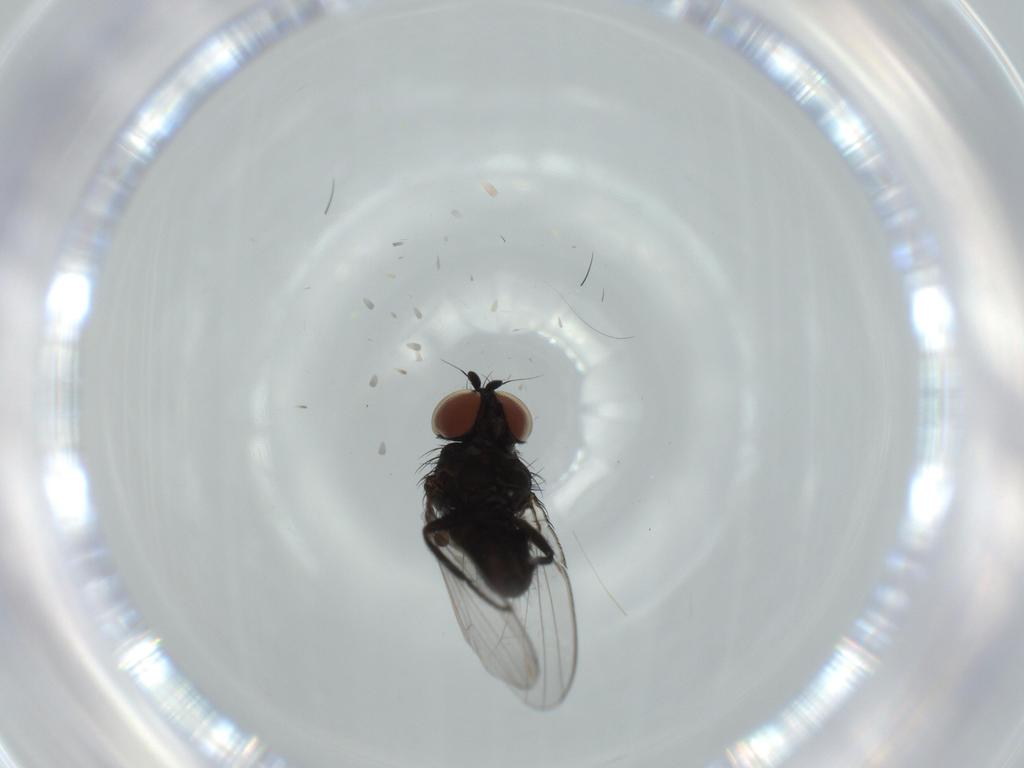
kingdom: Animalia
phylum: Arthropoda
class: Insecta
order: Diptera
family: Milichiidae
